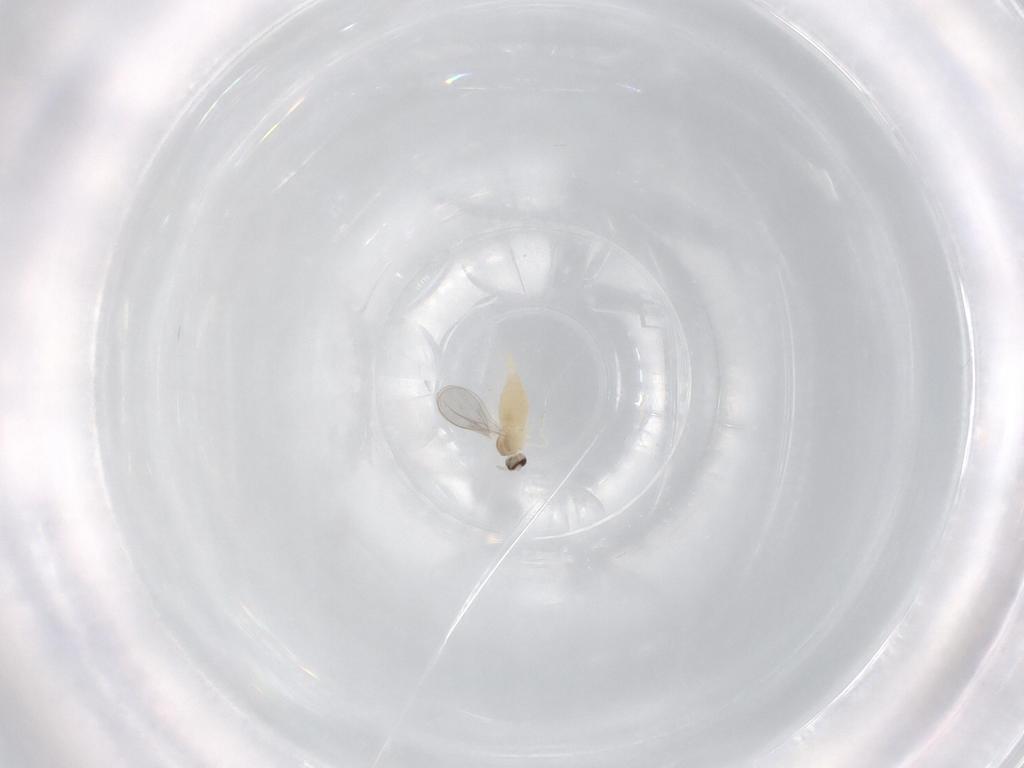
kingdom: Animalia
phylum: Arthropoda
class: Insecta
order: Diptera
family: Cecidomyiidae
